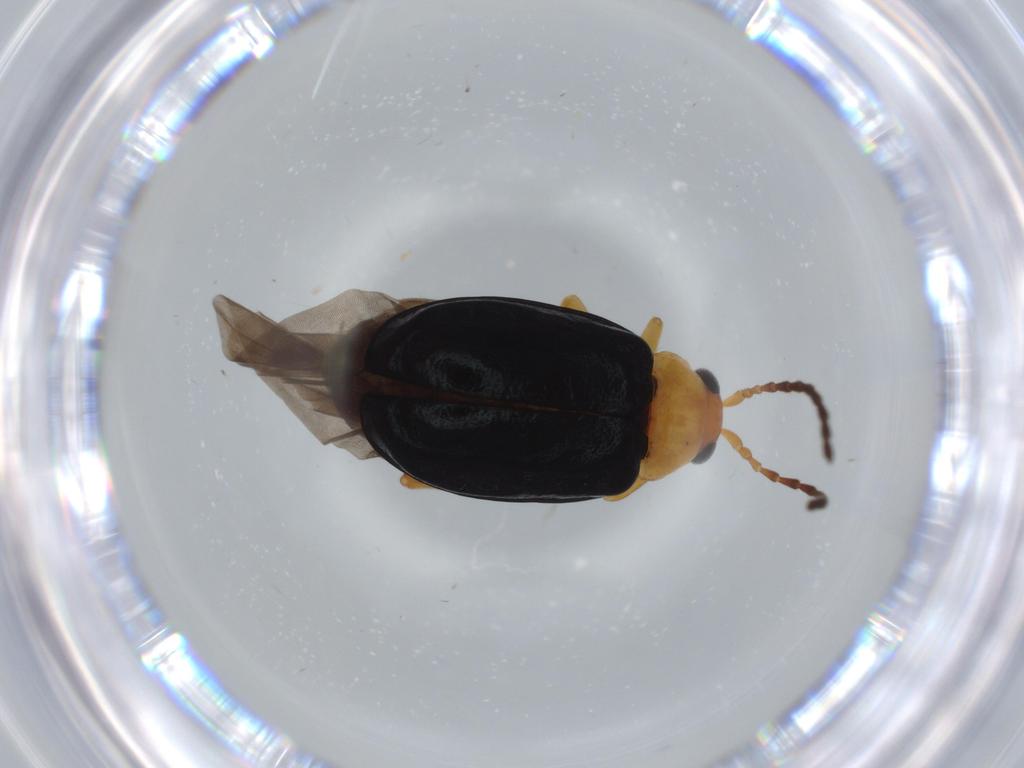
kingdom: Animalia
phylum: Arthropoda
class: Insecta
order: Coleoptera
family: Chrysomelidae
